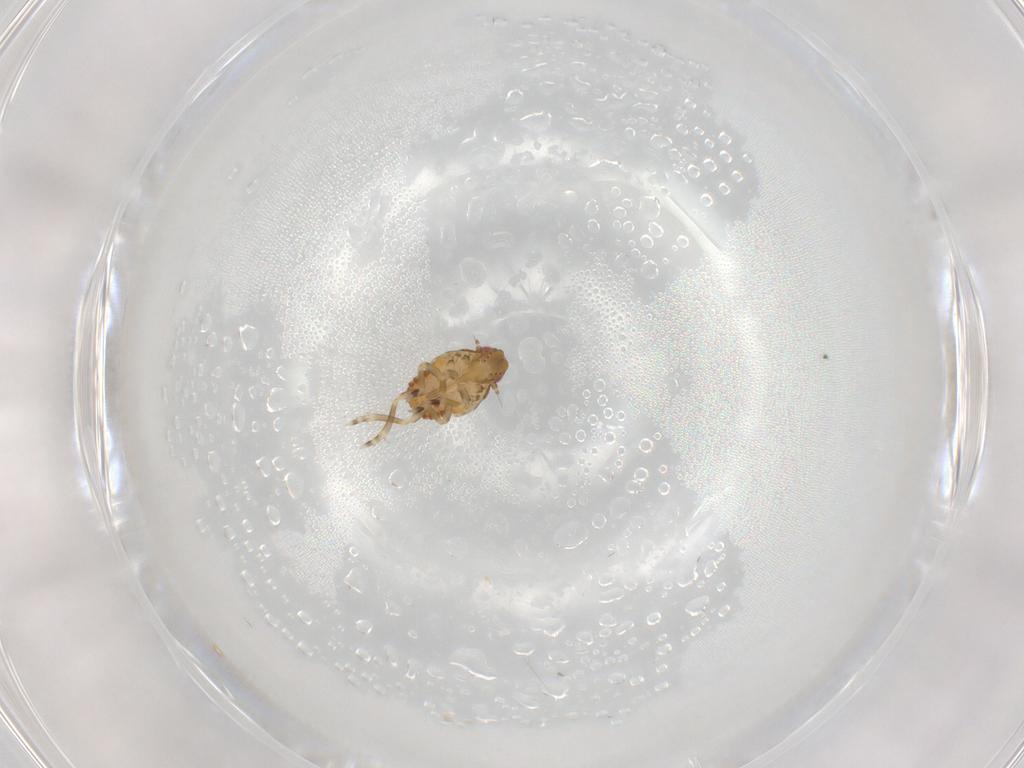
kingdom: Animalia
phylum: Arthropoda
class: Insecta
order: Hemiptera
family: Flatidae
